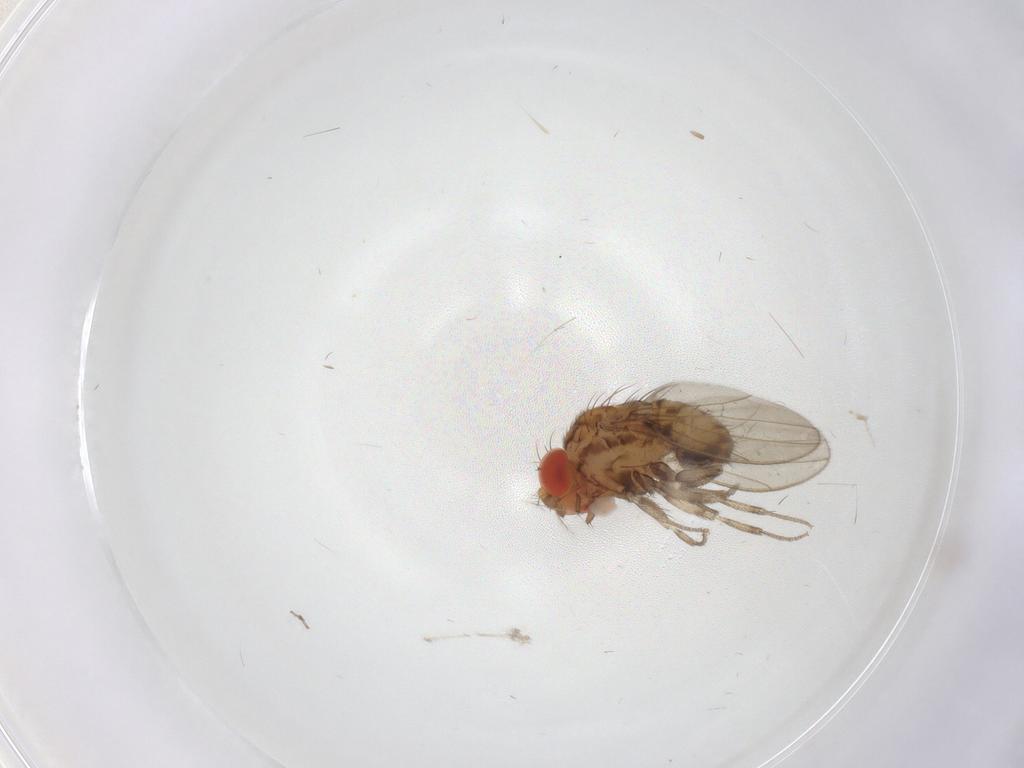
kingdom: Animalia
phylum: Arthropoda
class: Insecta
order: Diptera
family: Drosophilidae
